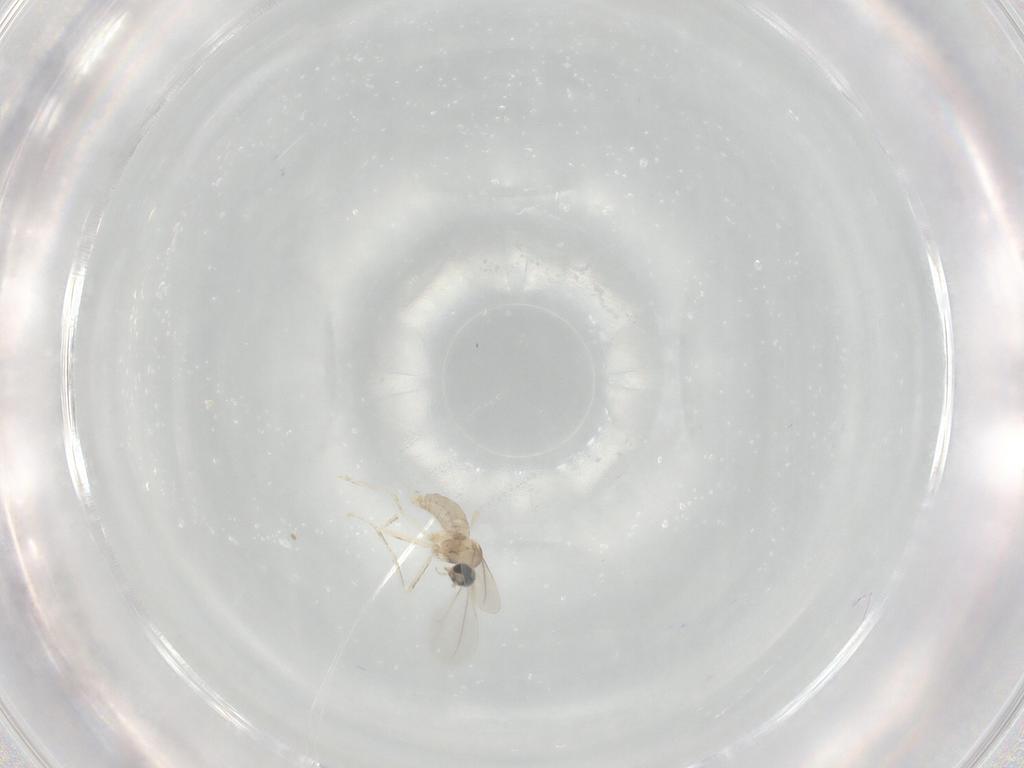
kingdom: Animalia
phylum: Arthropoda
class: Insecta
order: Diptera
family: Cecidomyiidae
